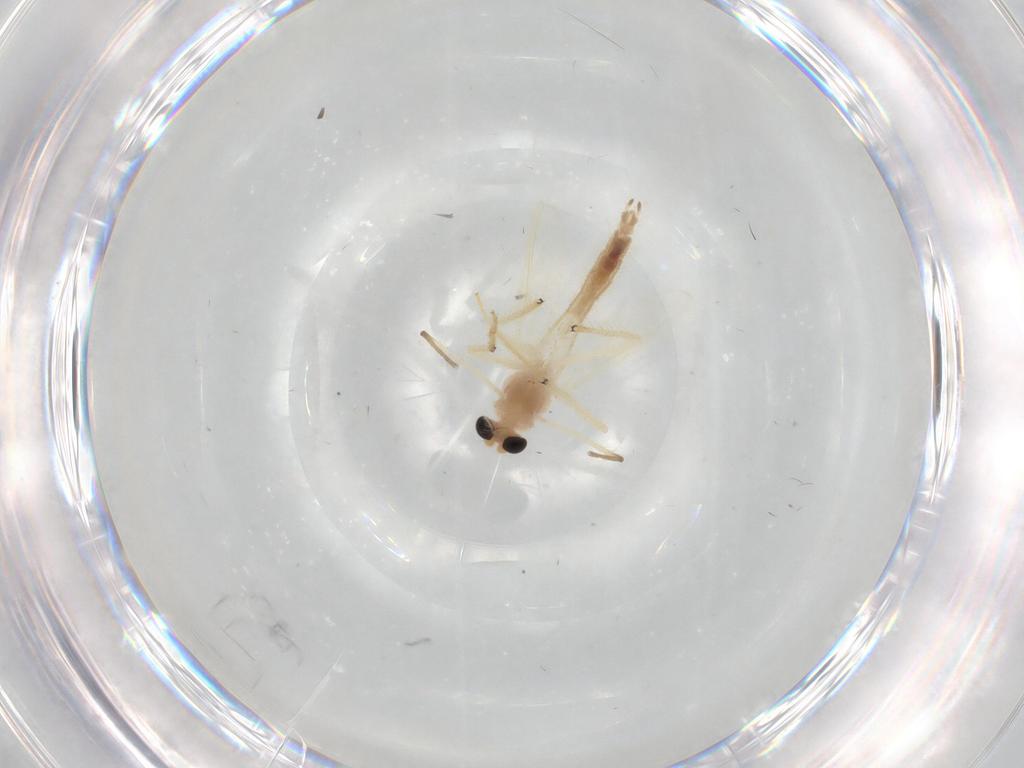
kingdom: Animalia
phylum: Arthropoda
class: Insecta
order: Diptera
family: Chironomidae
